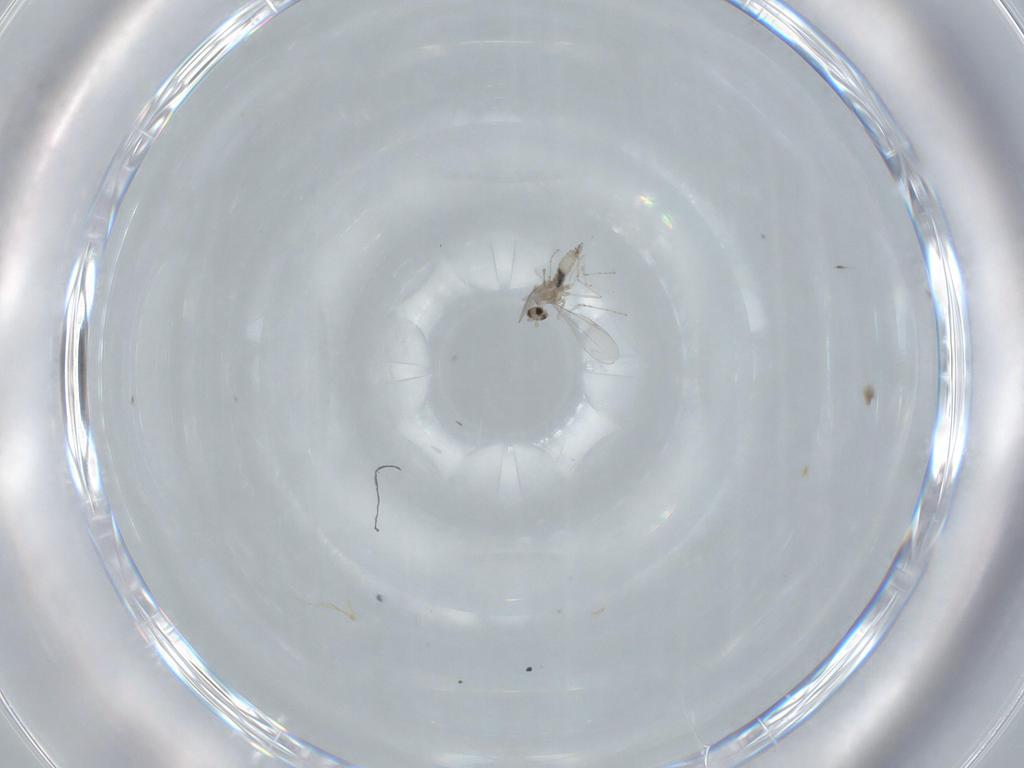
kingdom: Animalia
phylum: Arthropoda
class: Insecta
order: Diptera
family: Cecidomyiidae
